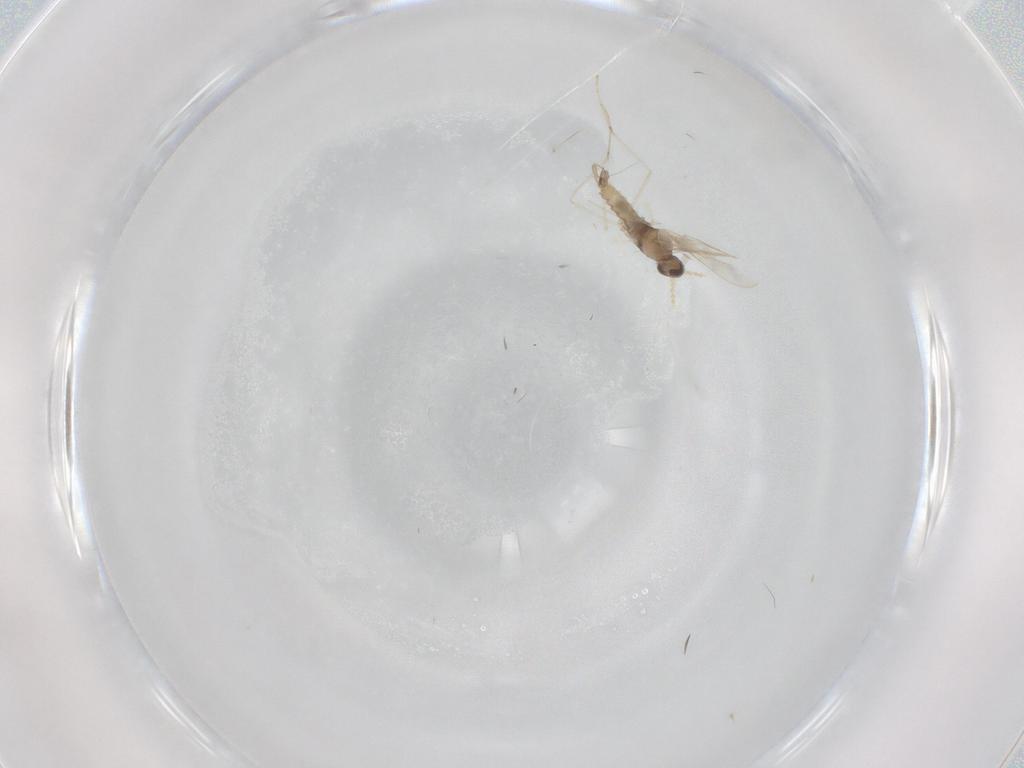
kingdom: Animalia
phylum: Arthropoda
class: Insecta
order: Diptera
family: Cecidomyiidae
